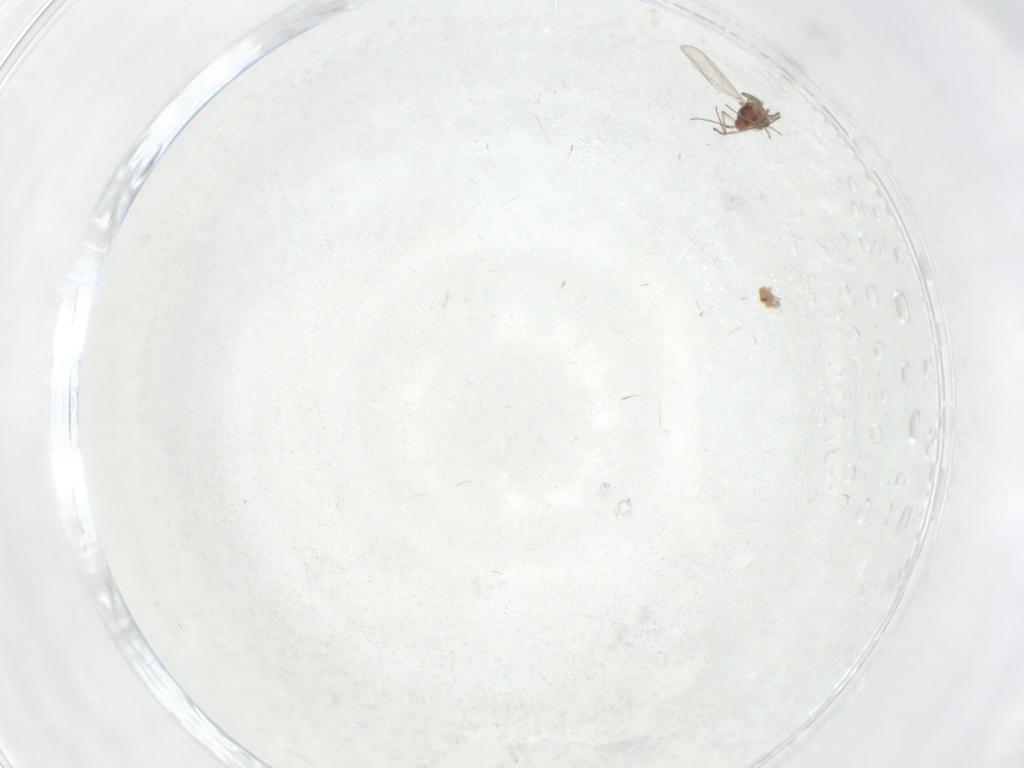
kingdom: Animalia
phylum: Arthropoda
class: Insecta
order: Diptera
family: Cecidomyiidae
